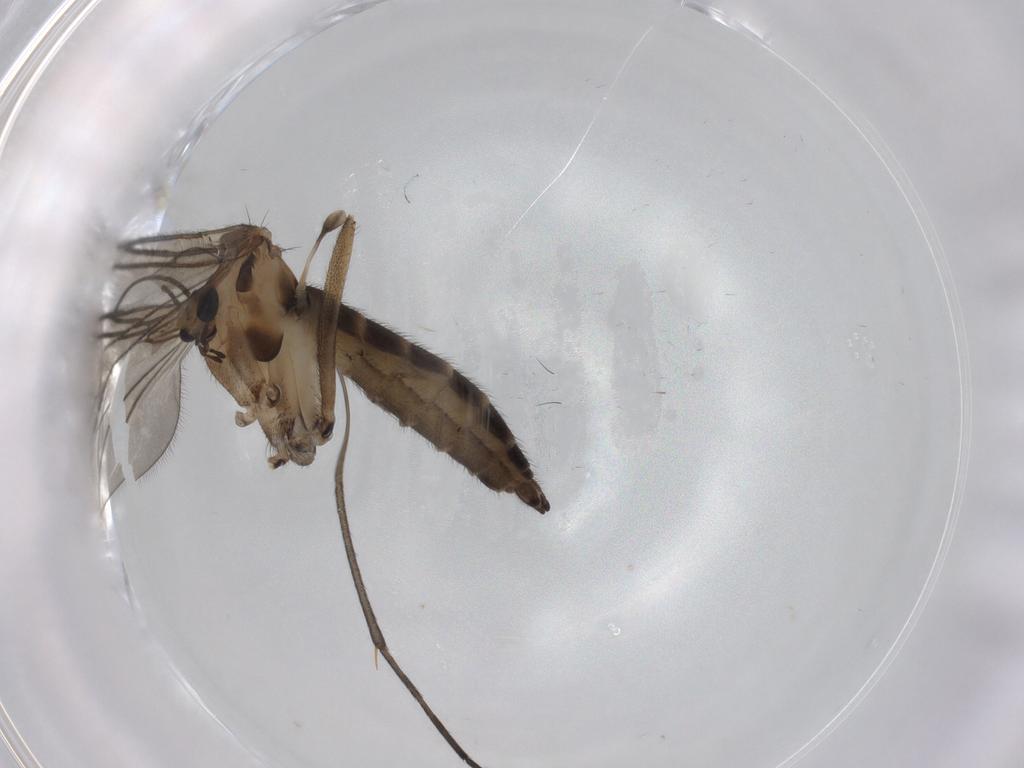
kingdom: Animalia
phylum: Arthropoda
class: Insecta
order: Diptera
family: Sciaridae
